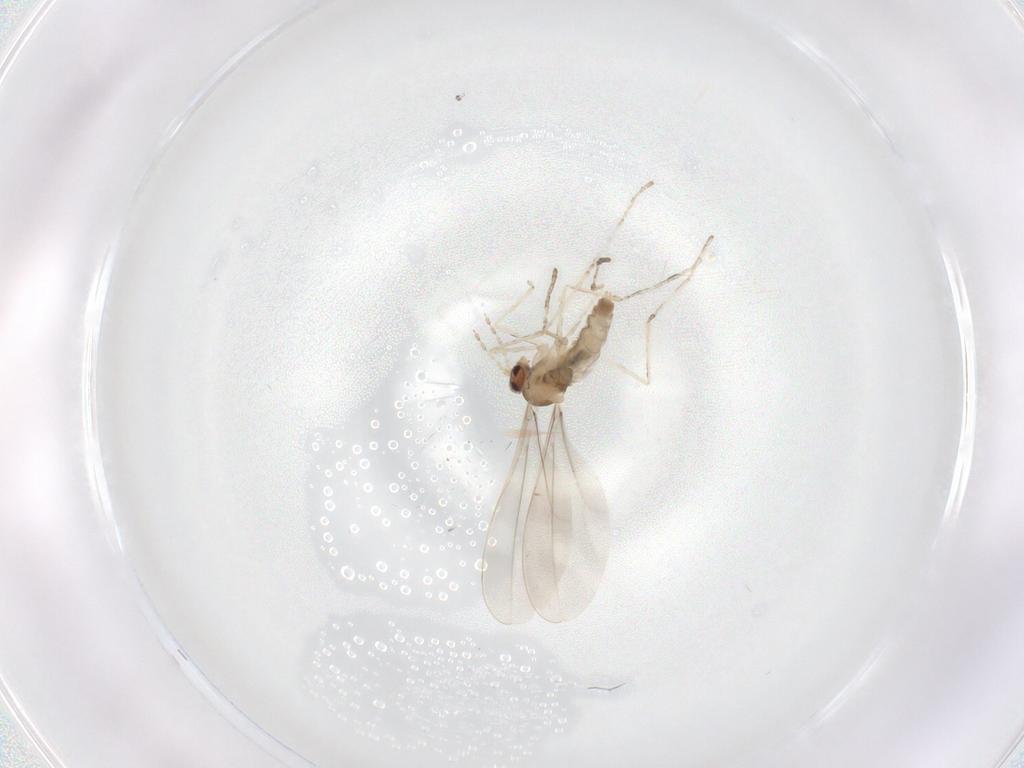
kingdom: Animalia
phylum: Arthropoda
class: Insecta
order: Diptera
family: Cecidomyiidae
